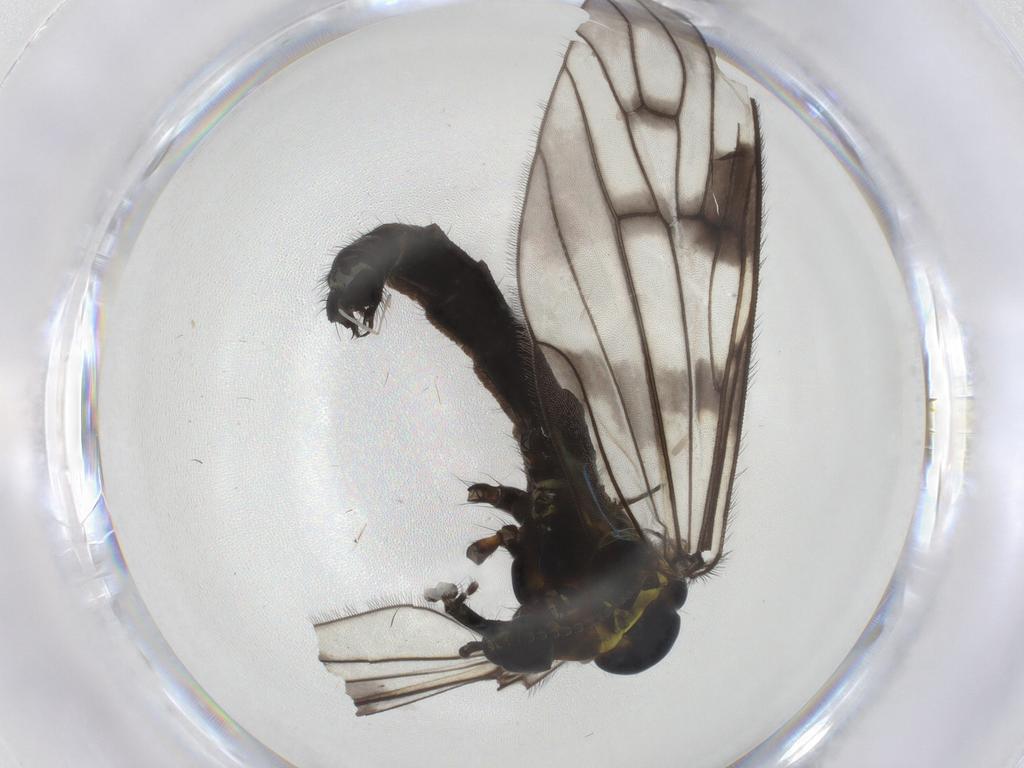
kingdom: Animalia
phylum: Arthropoda
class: Insecta
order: Diptera
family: Limoniidae
